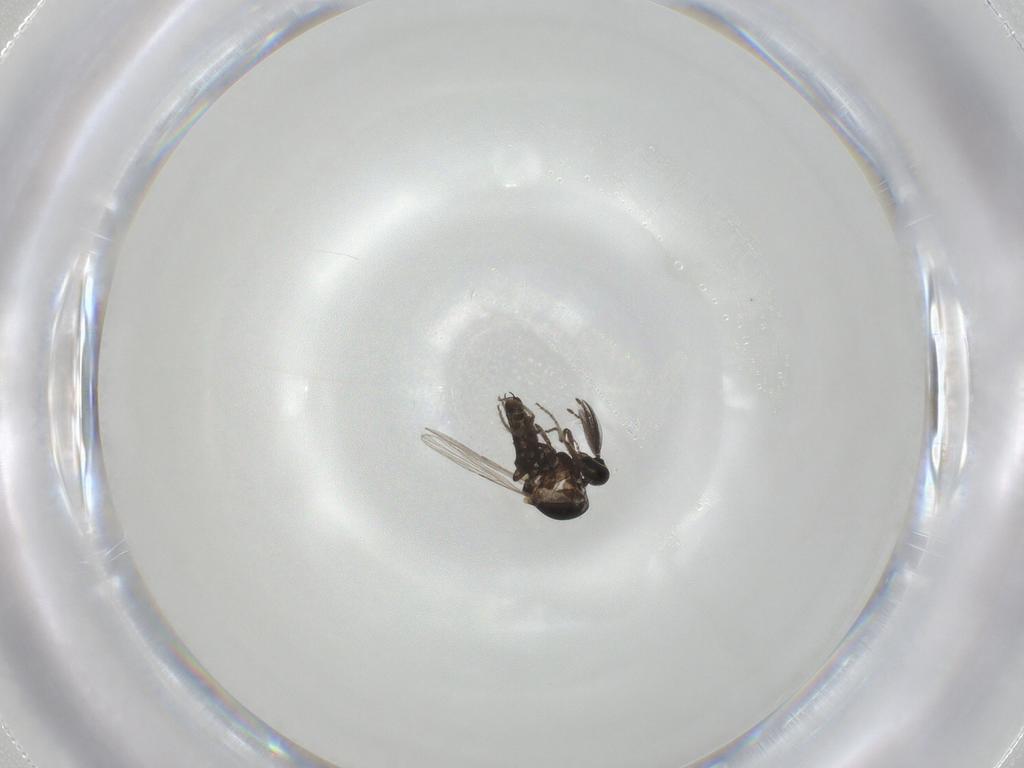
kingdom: Animalia
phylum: Arthropoda
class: Insecta
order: Diptera
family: Ceratopogonidae
